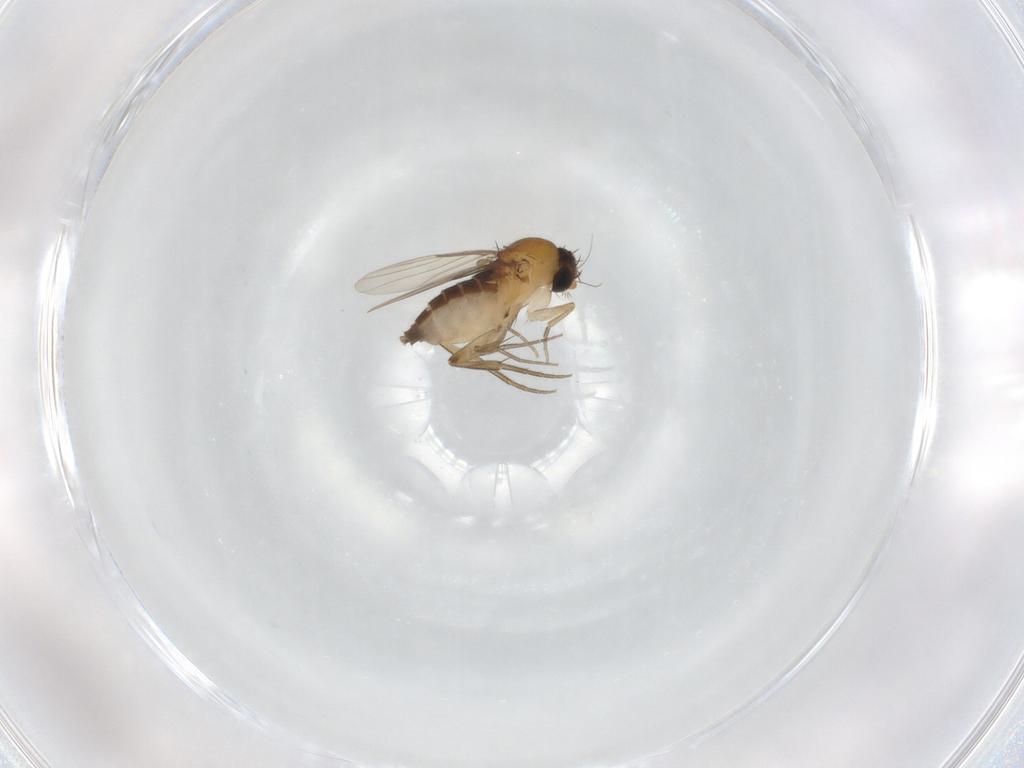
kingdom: Animalia
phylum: Arthropoda
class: Insecta
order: Diptera
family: Phoridae
